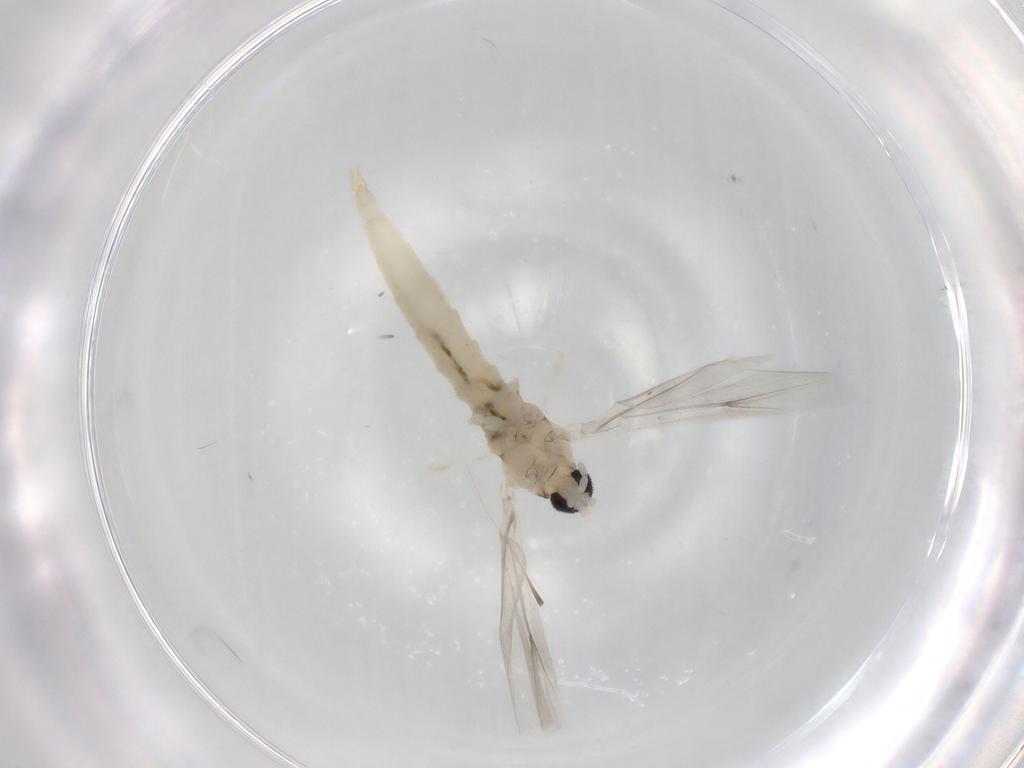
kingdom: Animalia
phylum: Arthropoda
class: Insecta
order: Diptera
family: Cecidomyiidae
